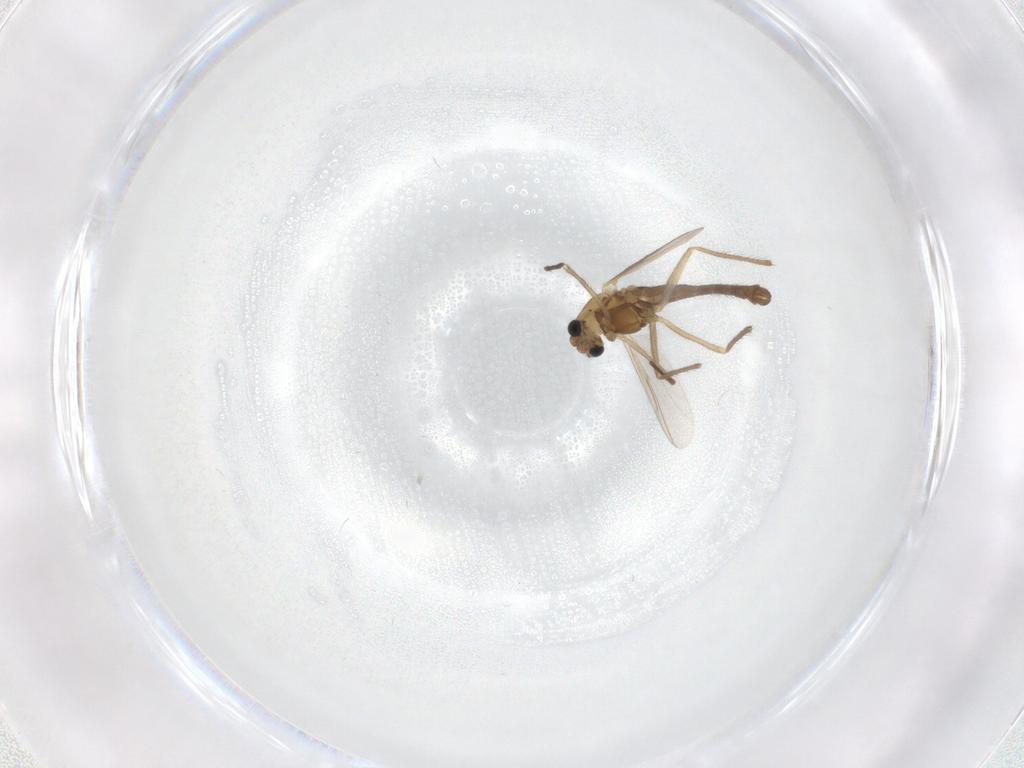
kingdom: Animalia
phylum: Arthropoda
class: Insecta
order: Diptera
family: Chironomidae
